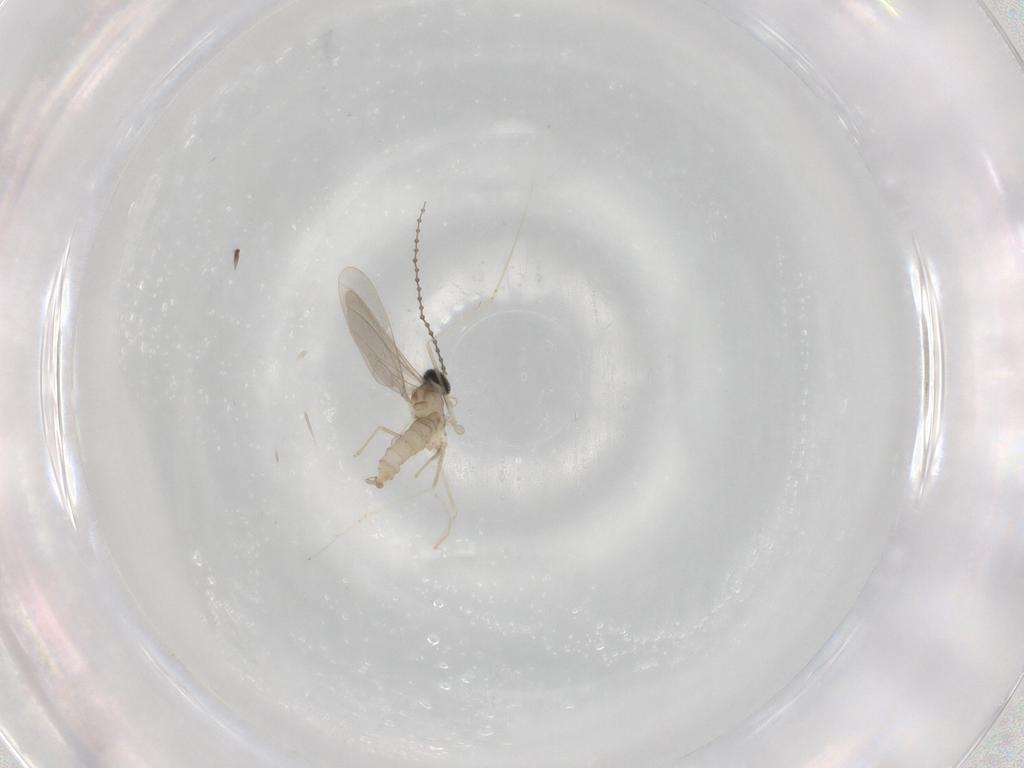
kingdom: Animalia
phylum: Arthropoda
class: Insecta
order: Diptera
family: Cecidomyiidae
